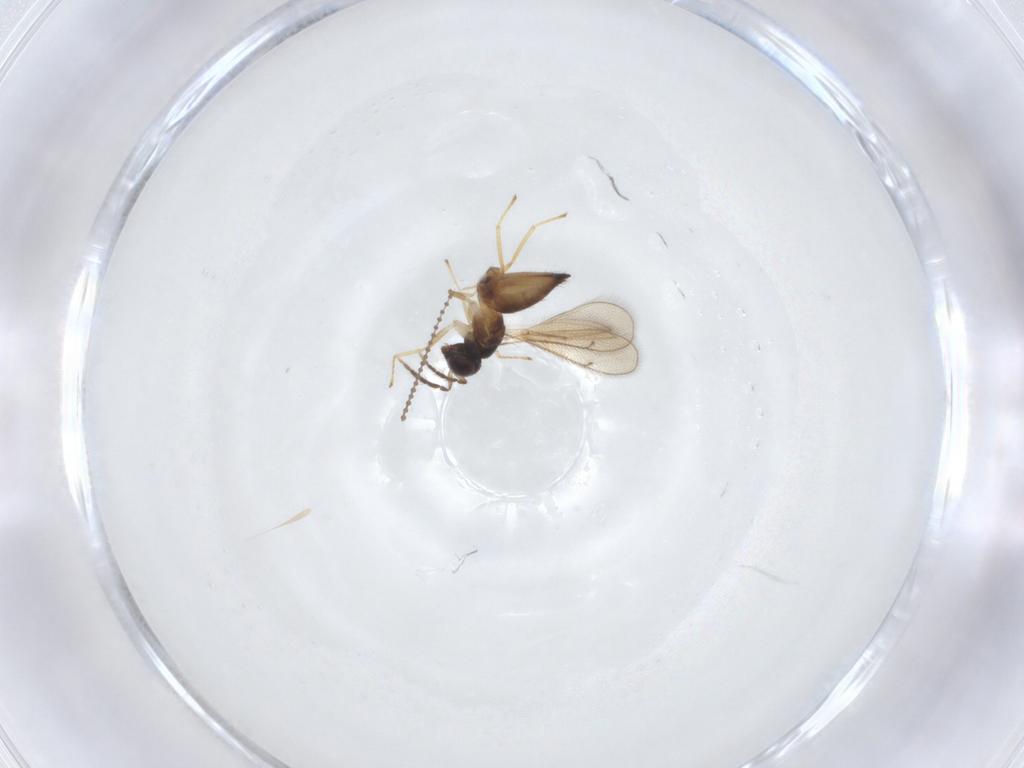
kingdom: Animalia
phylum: Arthropoda
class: Insecta
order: Hymenoptera
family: Eulophidae
